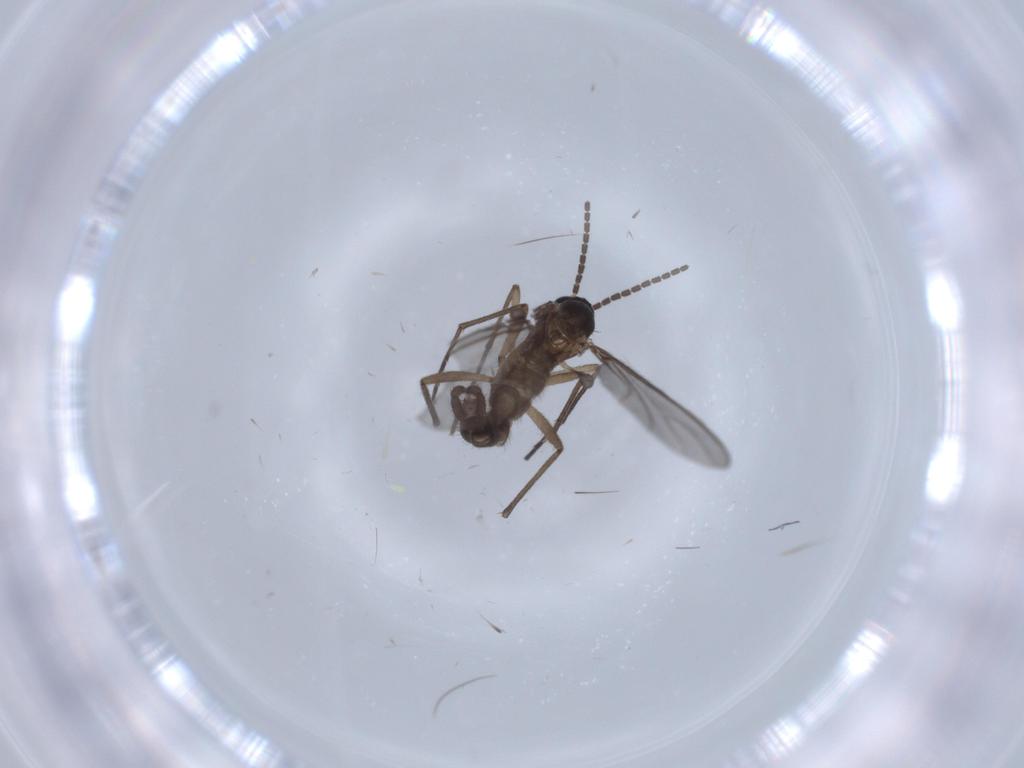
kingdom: Animalia
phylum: Arthropoda
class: Insecta
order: Diptera
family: Sciaridae
